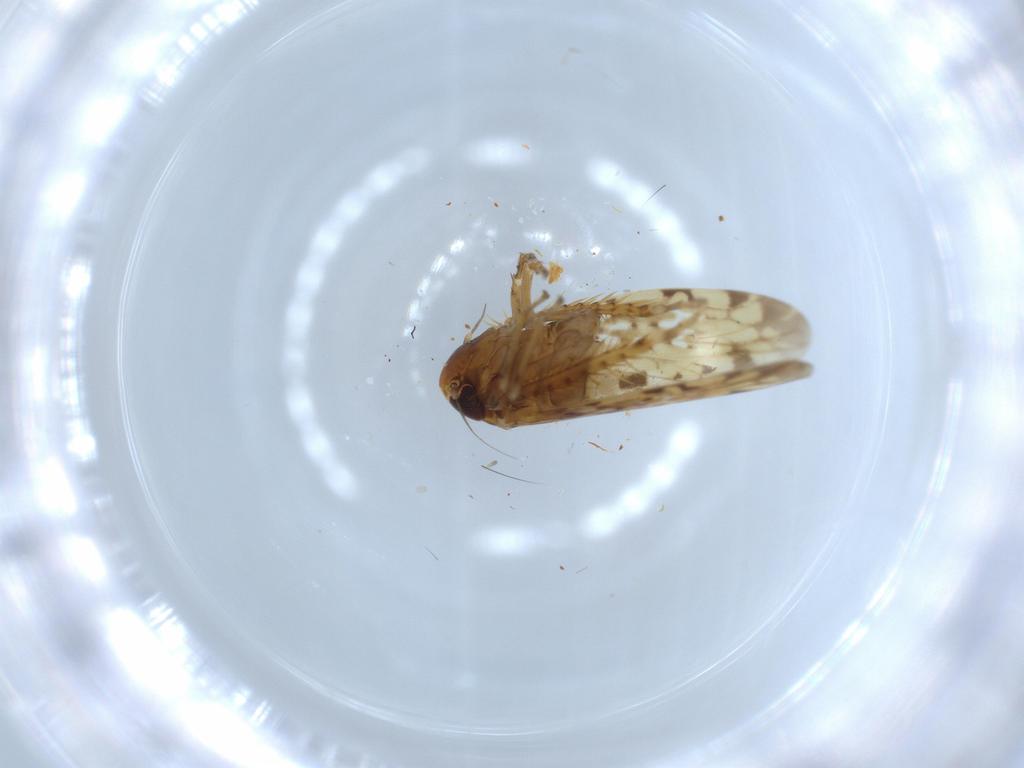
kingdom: Animalia
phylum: Arthropoda
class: Insecta
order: Hemiptera
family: Cicadellidae
